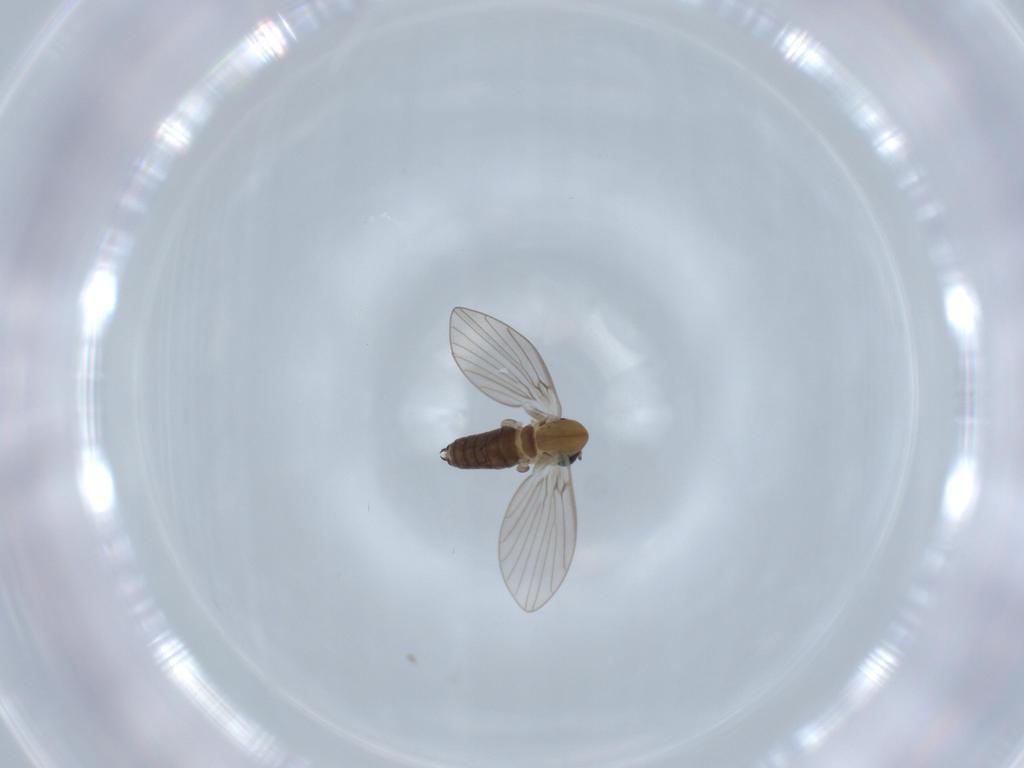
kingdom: Animalia
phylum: Arthropoda
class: Insecta
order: Diptera
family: Psychodidae
